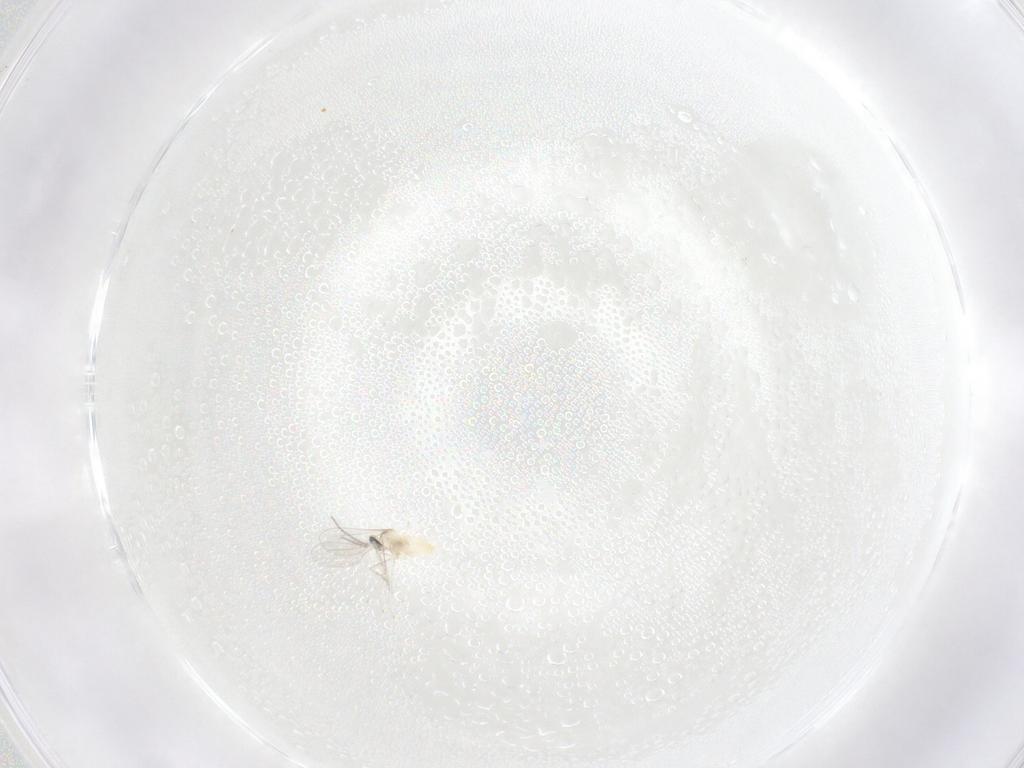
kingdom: Animalia
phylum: Arthropoda
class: Insecta
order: Diptera
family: Cecidomyiidae
